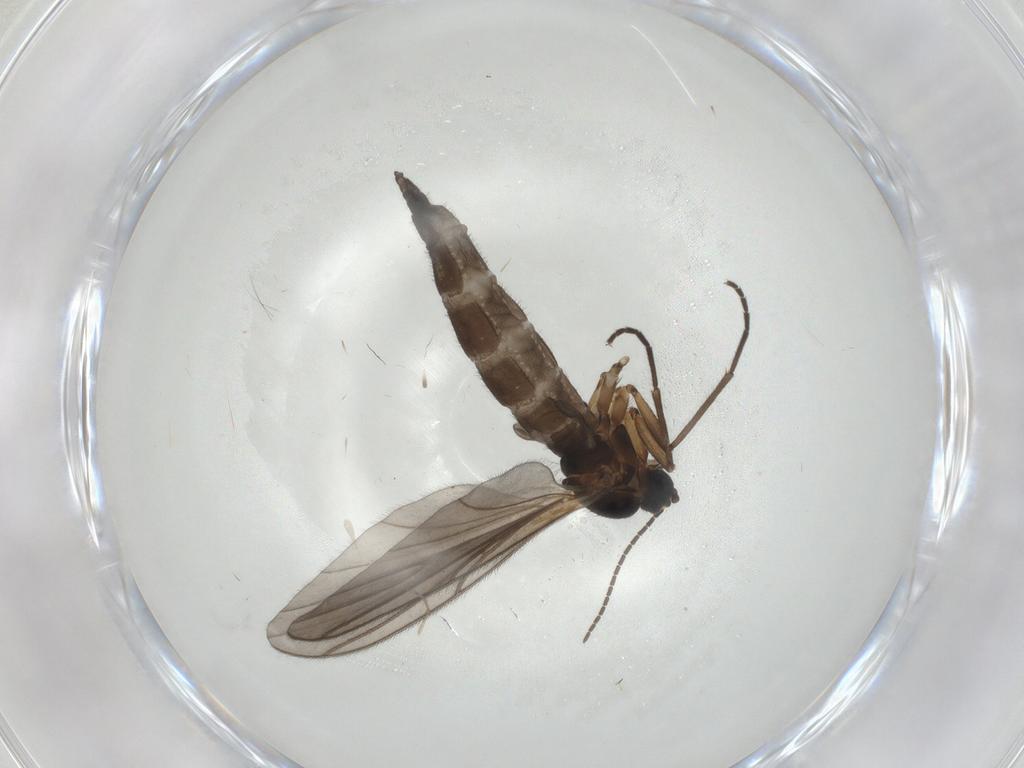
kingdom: Animalia
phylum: Arthropoda
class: Insecta
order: Diptera
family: Sciaridae
